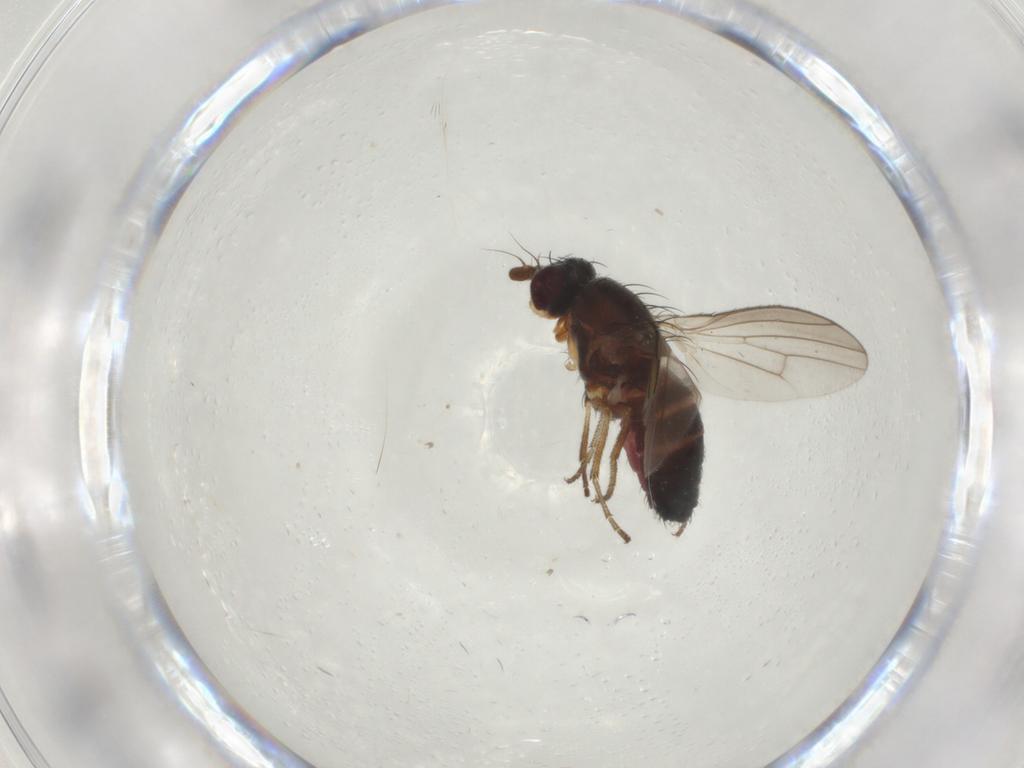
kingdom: Animalia
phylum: Arthropoda
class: Insecta
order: Diptera
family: Heleomyzidae
